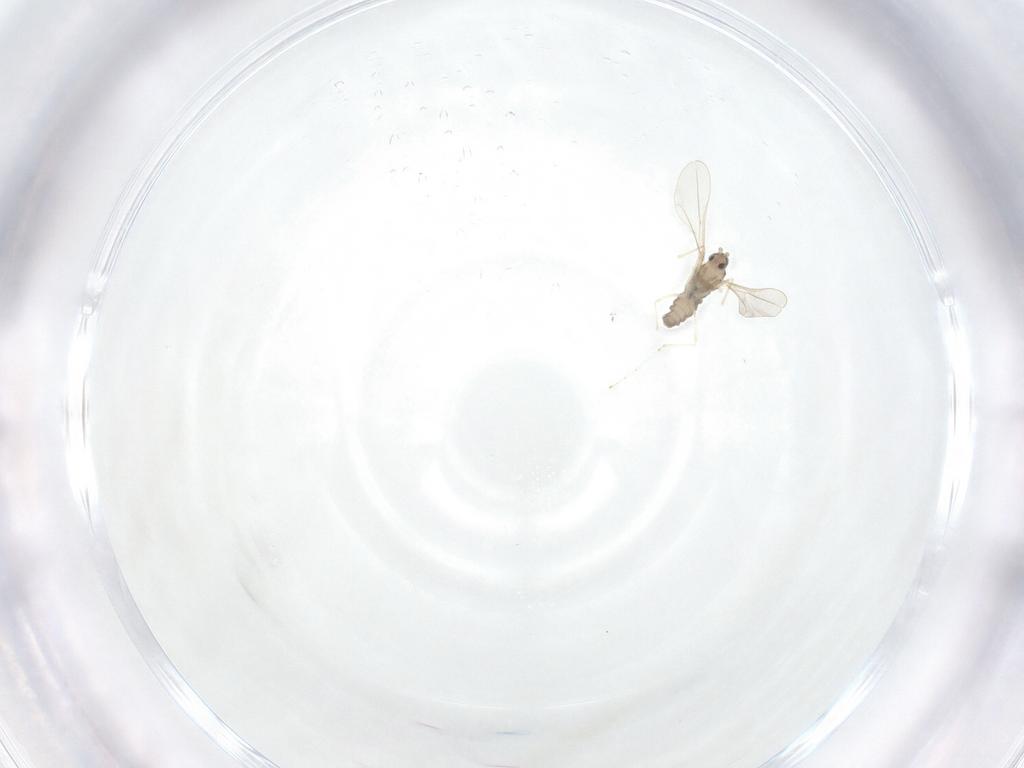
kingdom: Animalia
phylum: Arthropoda
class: Insecta
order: Diptera
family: Cecidomyiidae
